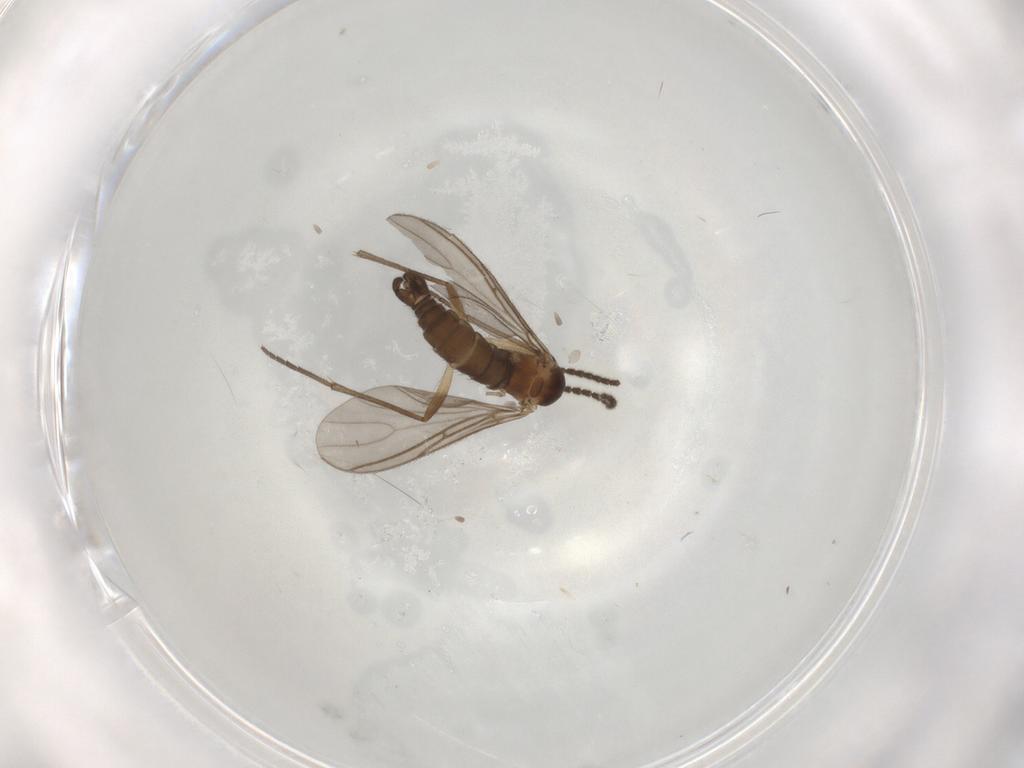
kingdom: Animalia
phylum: Arthropoda
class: Insecta
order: Diptera
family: Sciaridae
